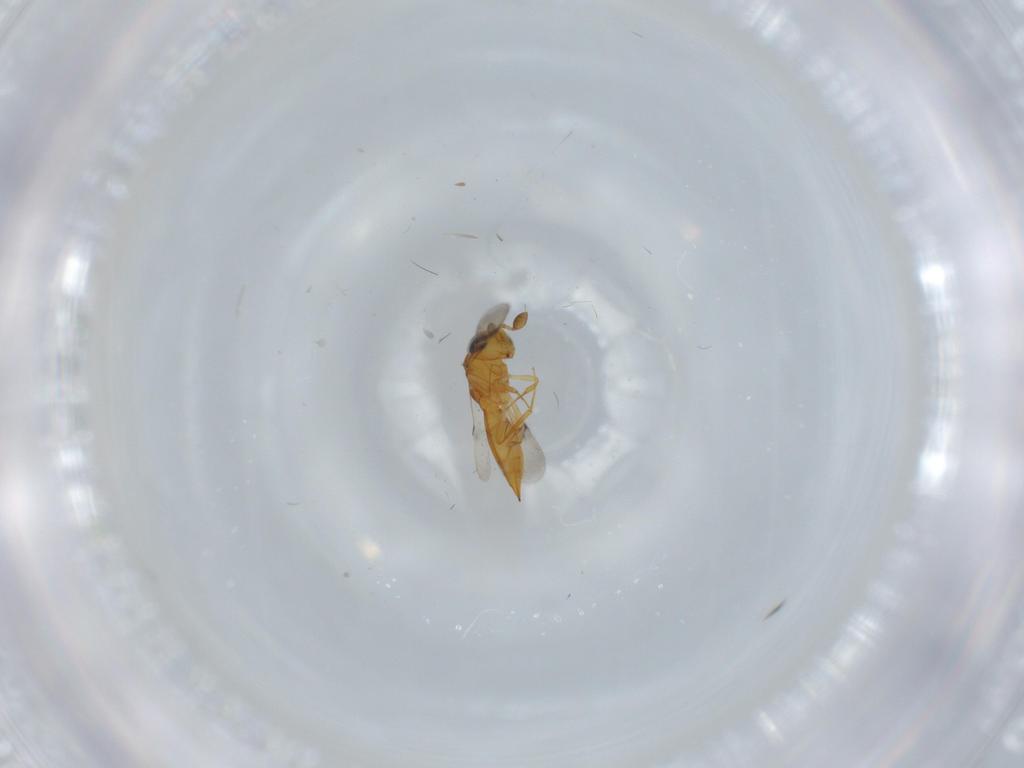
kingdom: Animalia
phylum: Arthropoda
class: Insecta
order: Hymenoptera
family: Scelionidae
